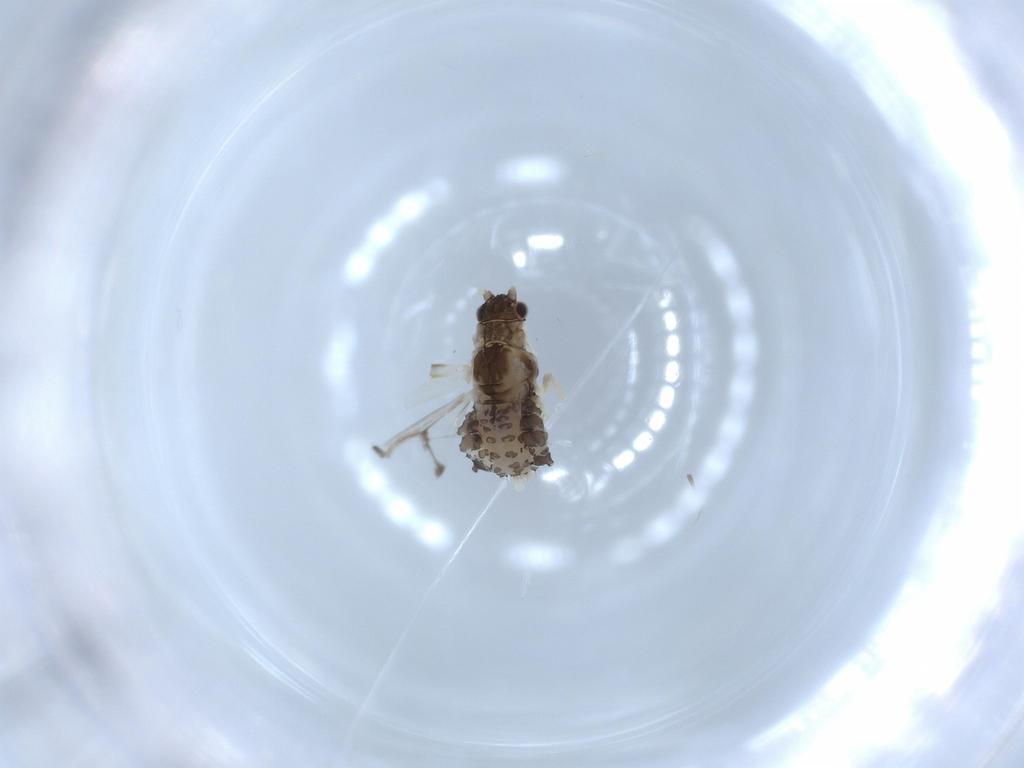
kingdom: Animalia
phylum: Arthropoda
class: Insecta
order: Hemiptera
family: Aphididae
